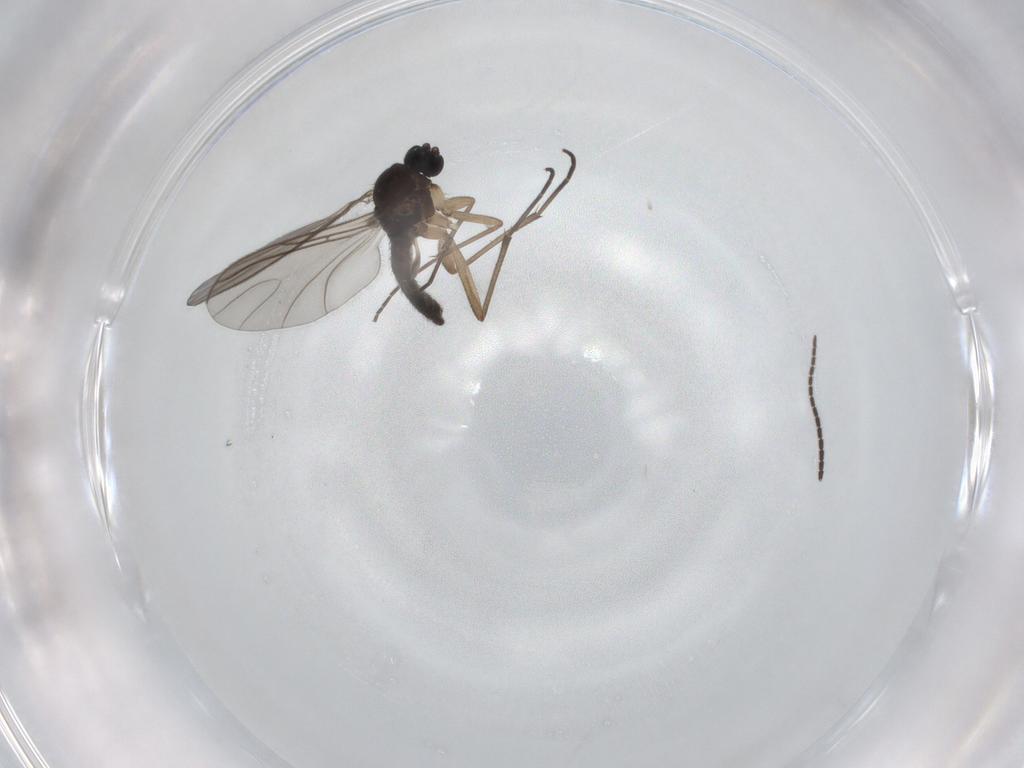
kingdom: Animalia
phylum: Arthropoda
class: Insecta
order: Diptera
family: Sciaridae
